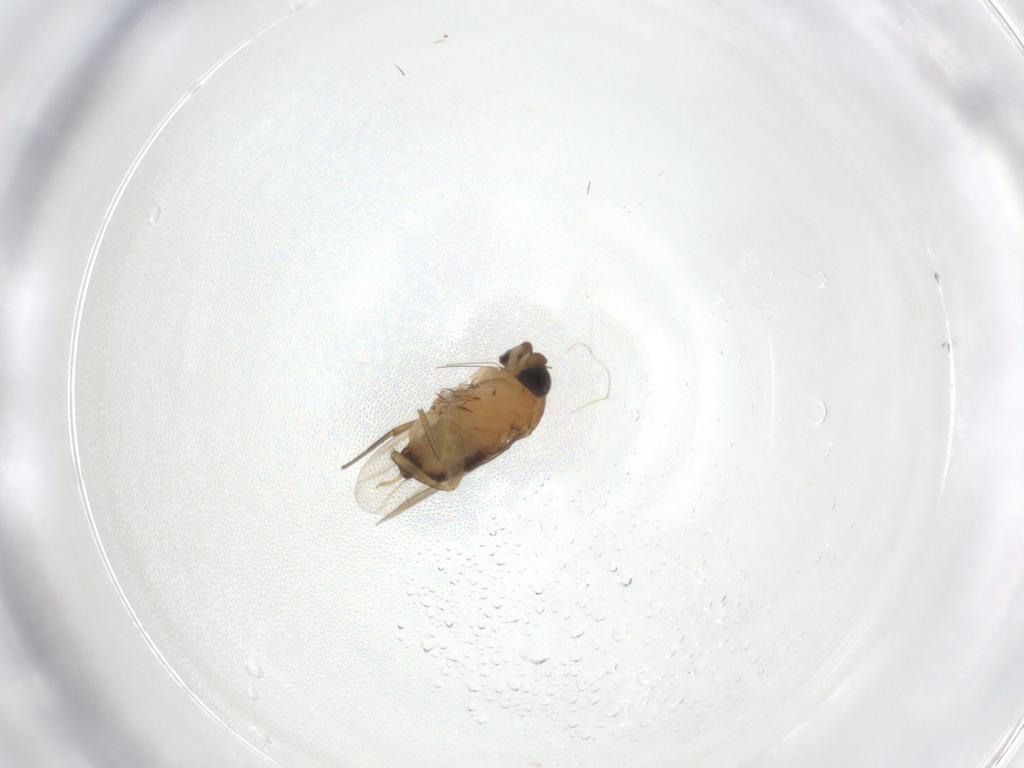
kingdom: Animalia
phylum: Arthropoda
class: Insecta
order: Diptera
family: Phoridae
